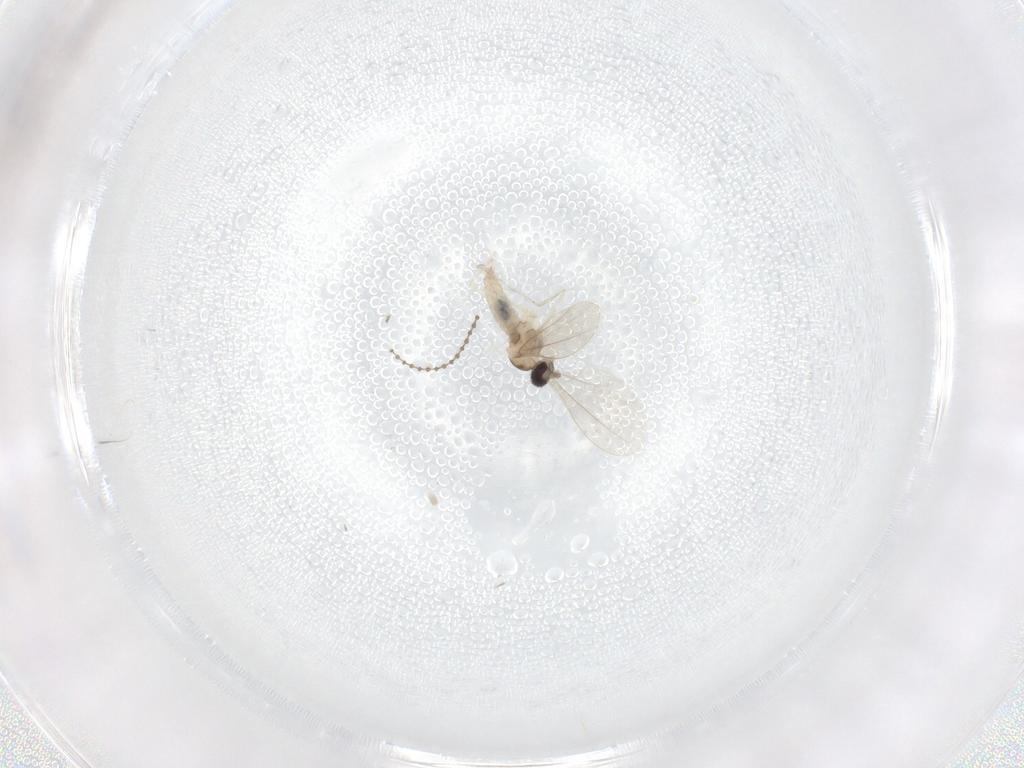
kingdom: Animalia
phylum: Arthropoda
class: Insecta
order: Diptera
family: Cecidomyiidae
